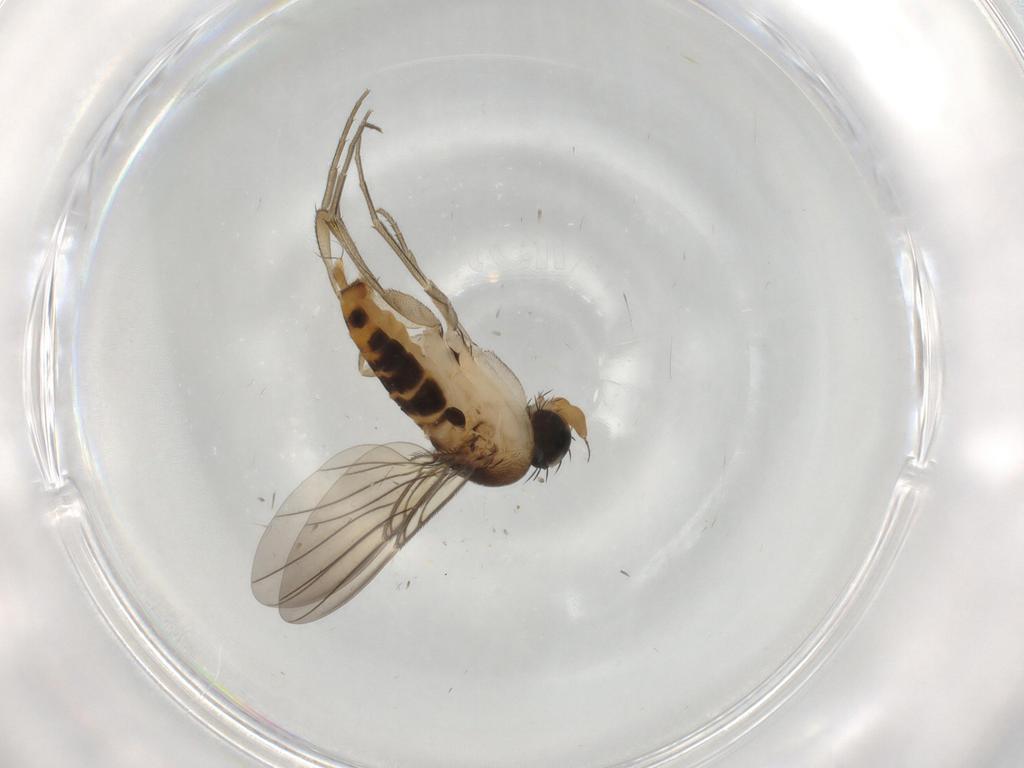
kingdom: Animalia
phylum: Arthropoda
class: Insecta
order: Diptera
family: Phoridae
